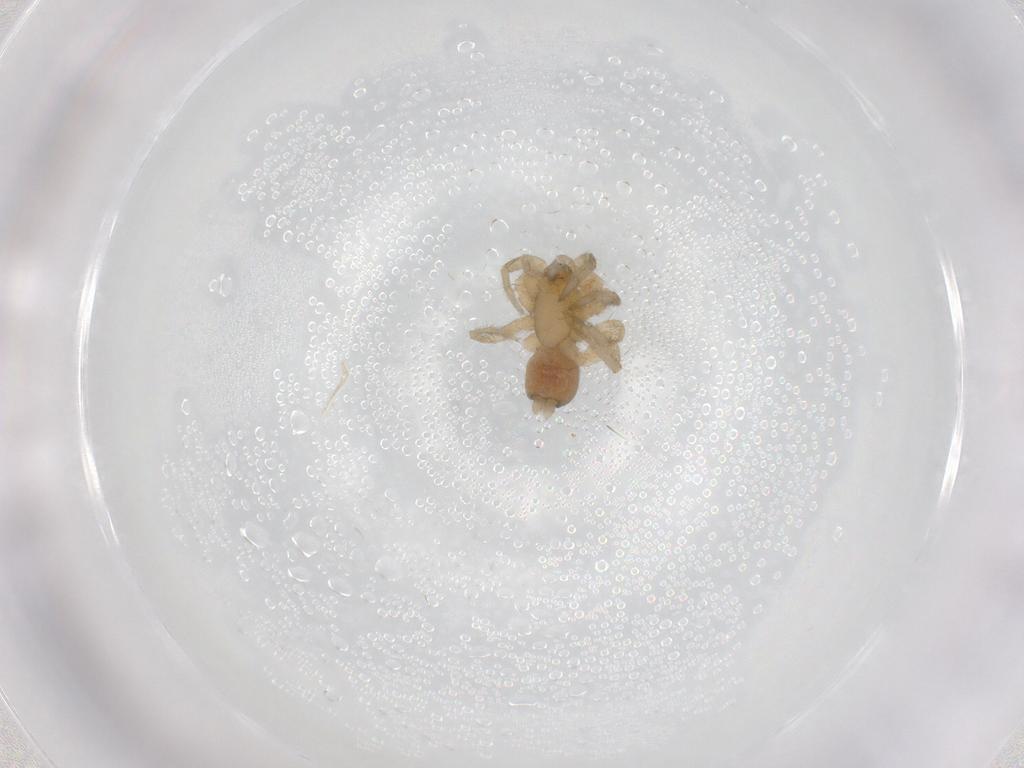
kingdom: Animalia
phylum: Arthropoda
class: Arachnida
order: Araneae
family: Gnaphosidae
